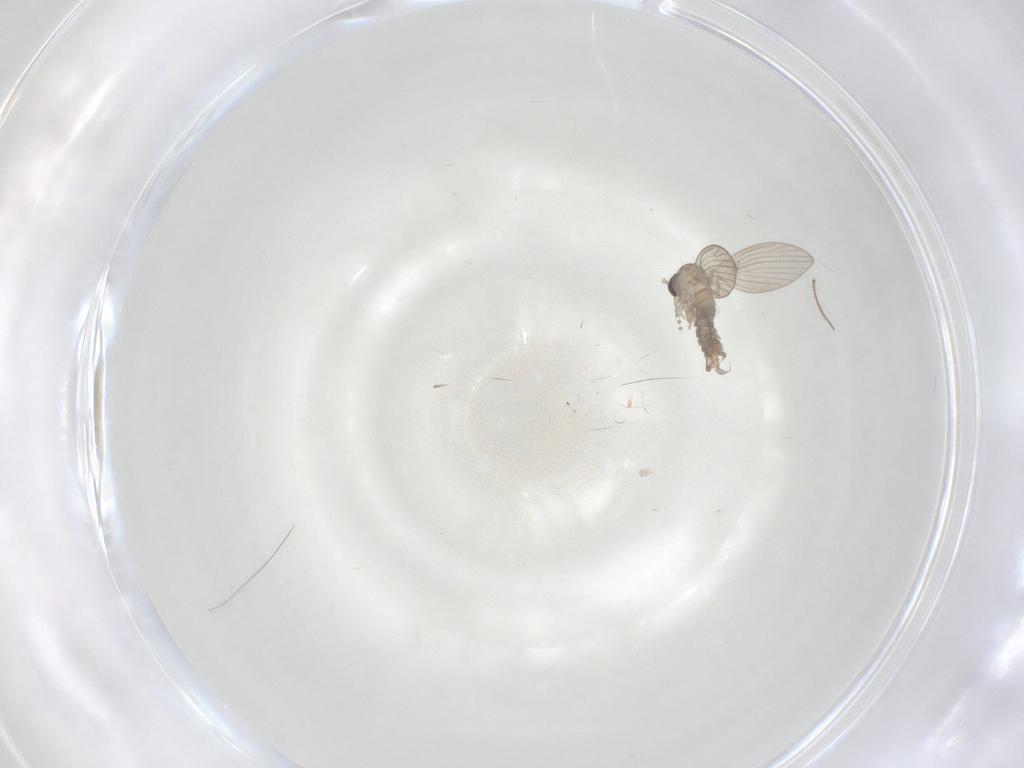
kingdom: Animalia
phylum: Arthropoda
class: Insecta
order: Diptera
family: Psychodidae
